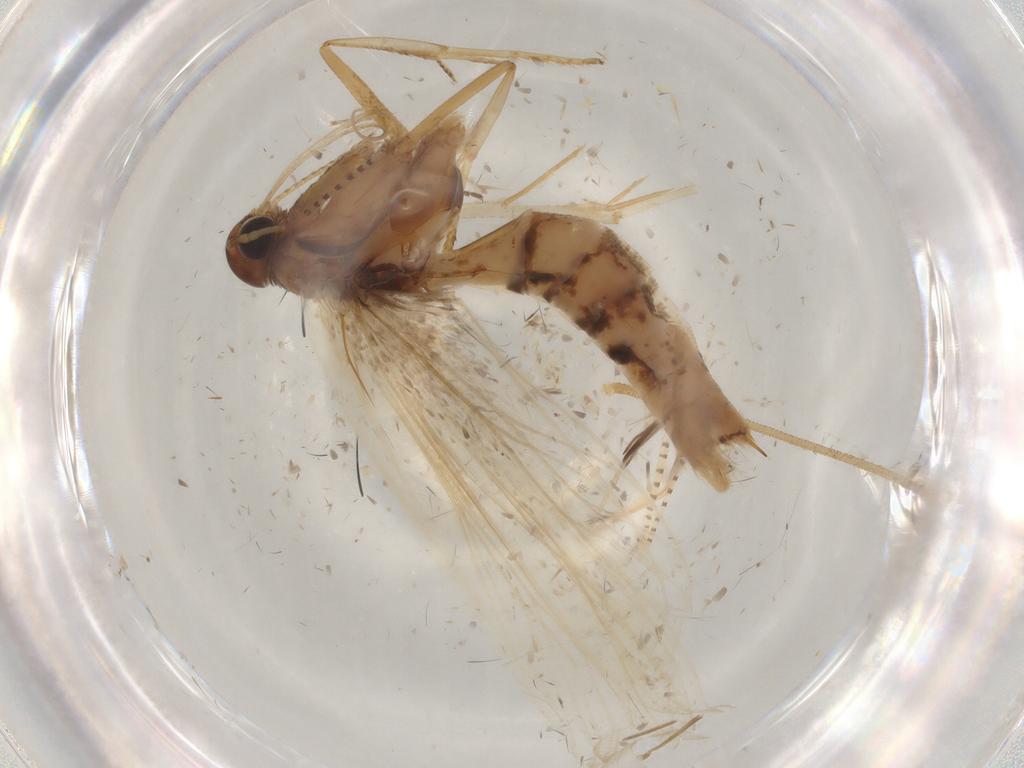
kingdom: Animalia
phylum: Arthropoda
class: Insecta
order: Lepidoptera
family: Gelechiidae
